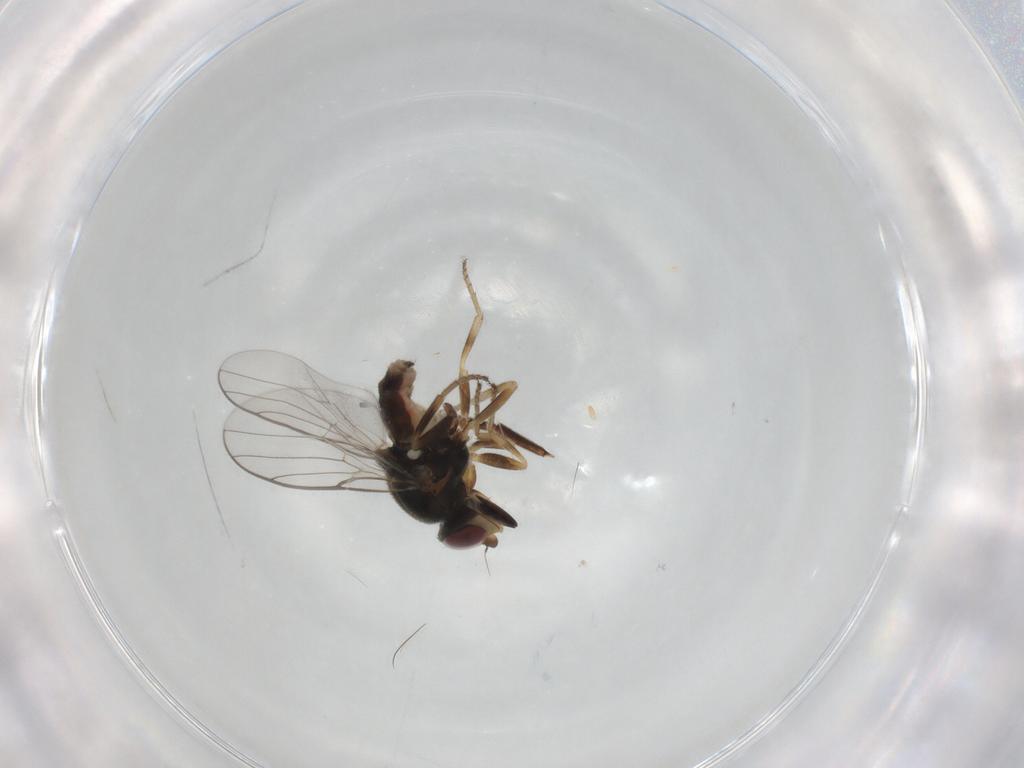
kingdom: Animalia
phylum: Arthropoda
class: Insecta
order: Diptera
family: Chloropidae
